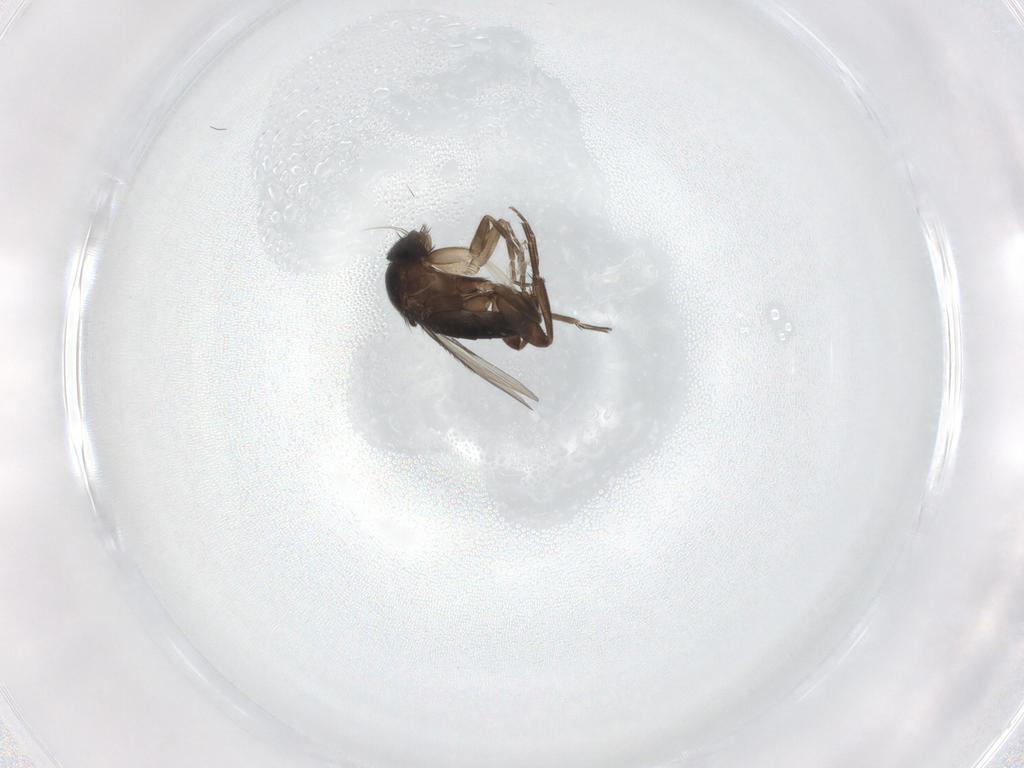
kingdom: Animalia
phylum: Arthropoda
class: Insecta
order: Diptera
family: Phoridae
